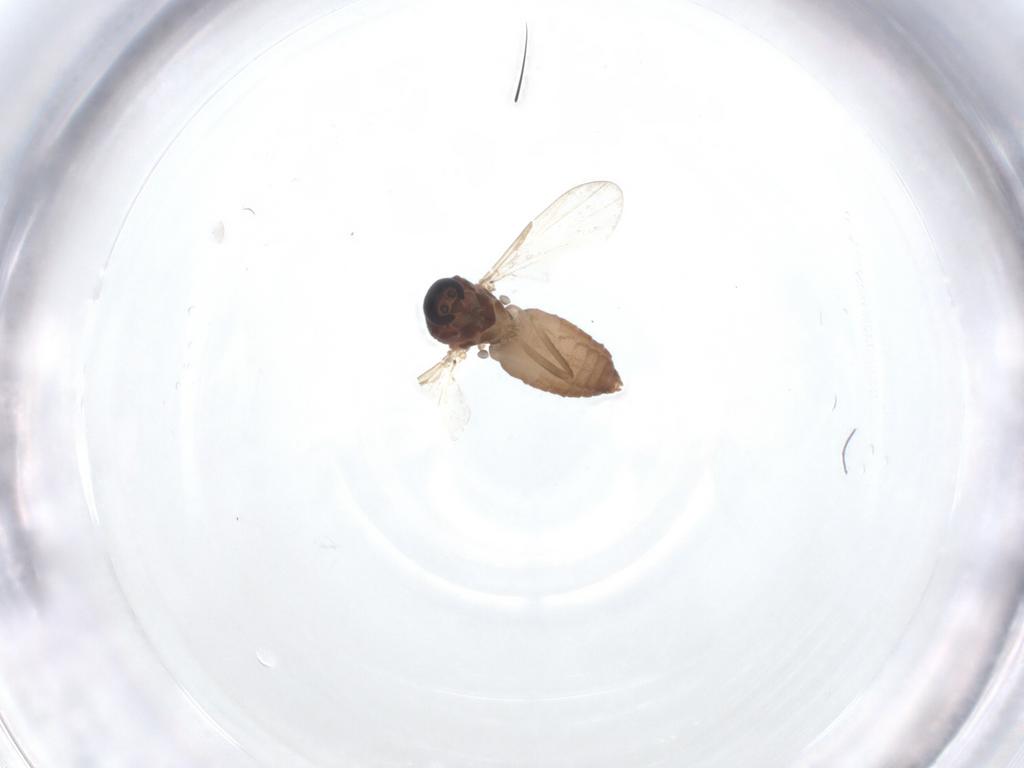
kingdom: Animalia
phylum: Arthropoda
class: Insecta
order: Diptera
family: Ceratopogonidae
